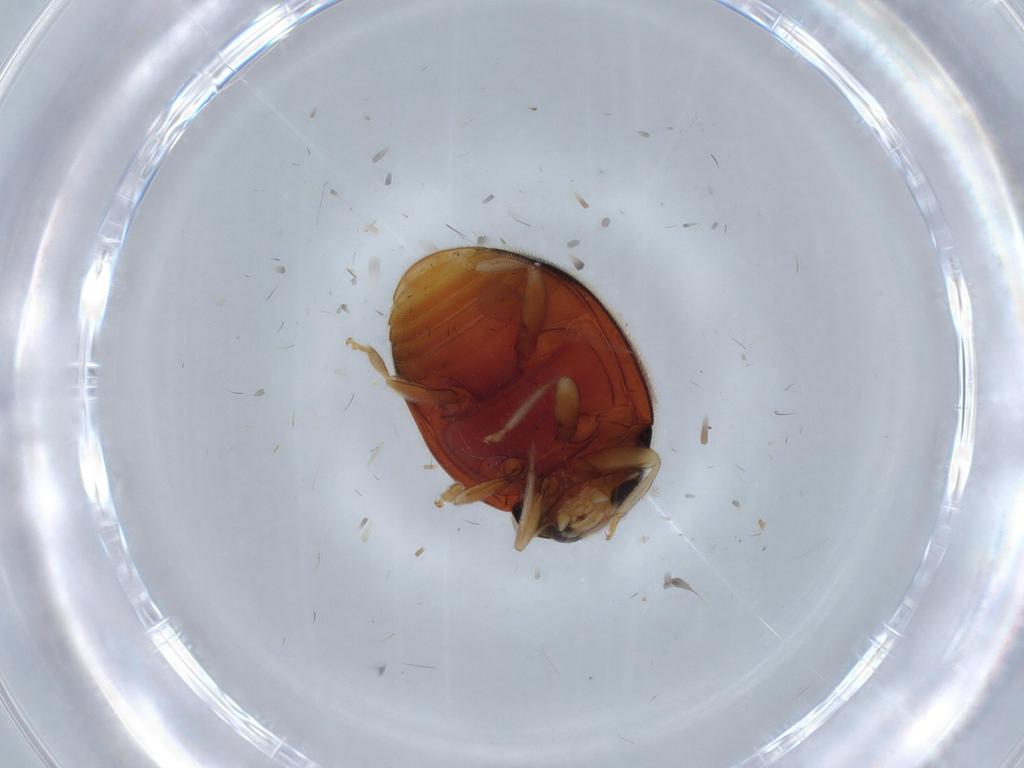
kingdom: Animalia
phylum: Arthropoda
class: Insecta
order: Coleoptera
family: Coccinellidae
